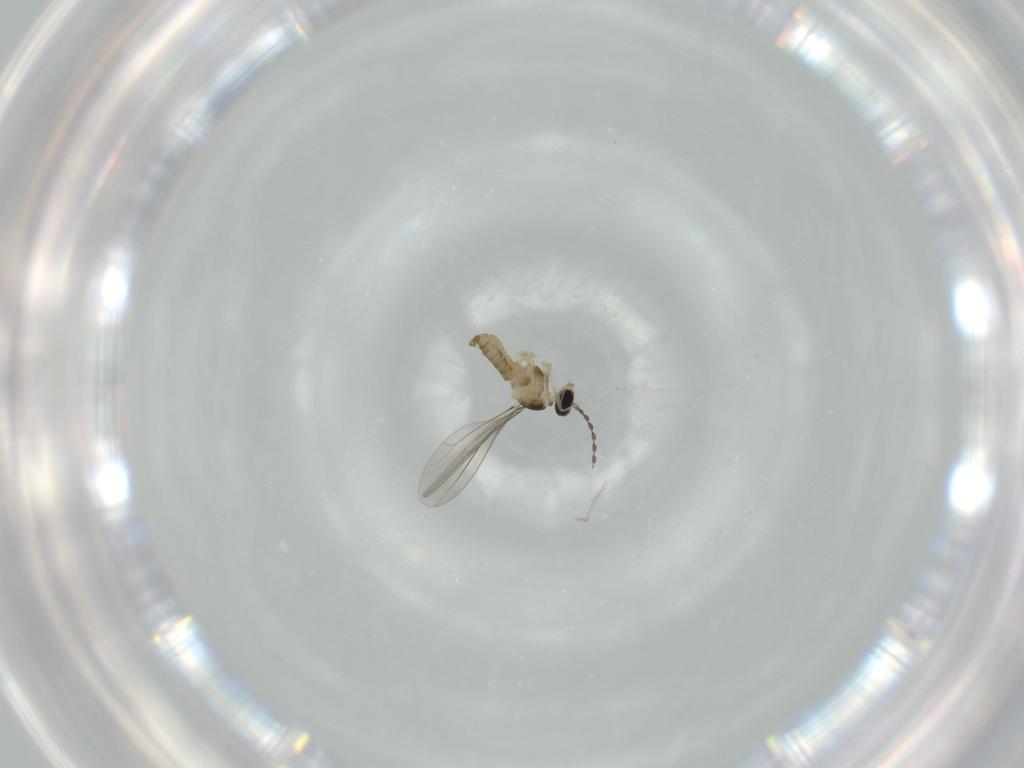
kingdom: Animalia
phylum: Arthropoda
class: Insecta
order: Diptera
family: Cecidomyiidae
